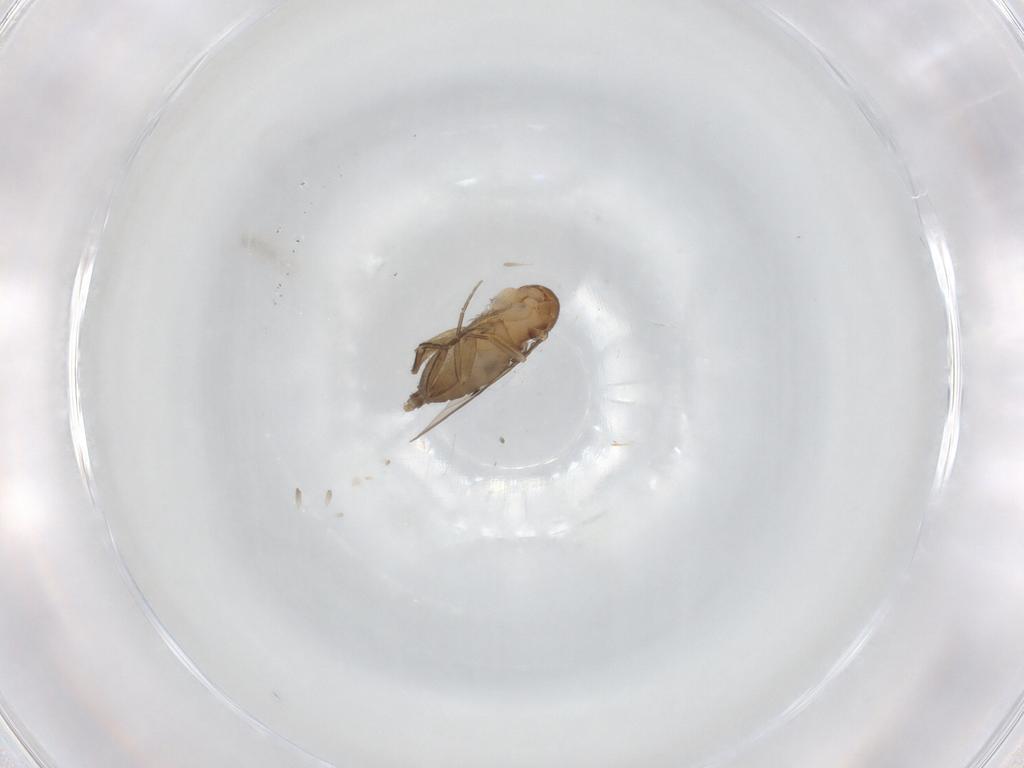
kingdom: Animalia
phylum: Arthropoda
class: Insecta
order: Diptera
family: Phoridae
